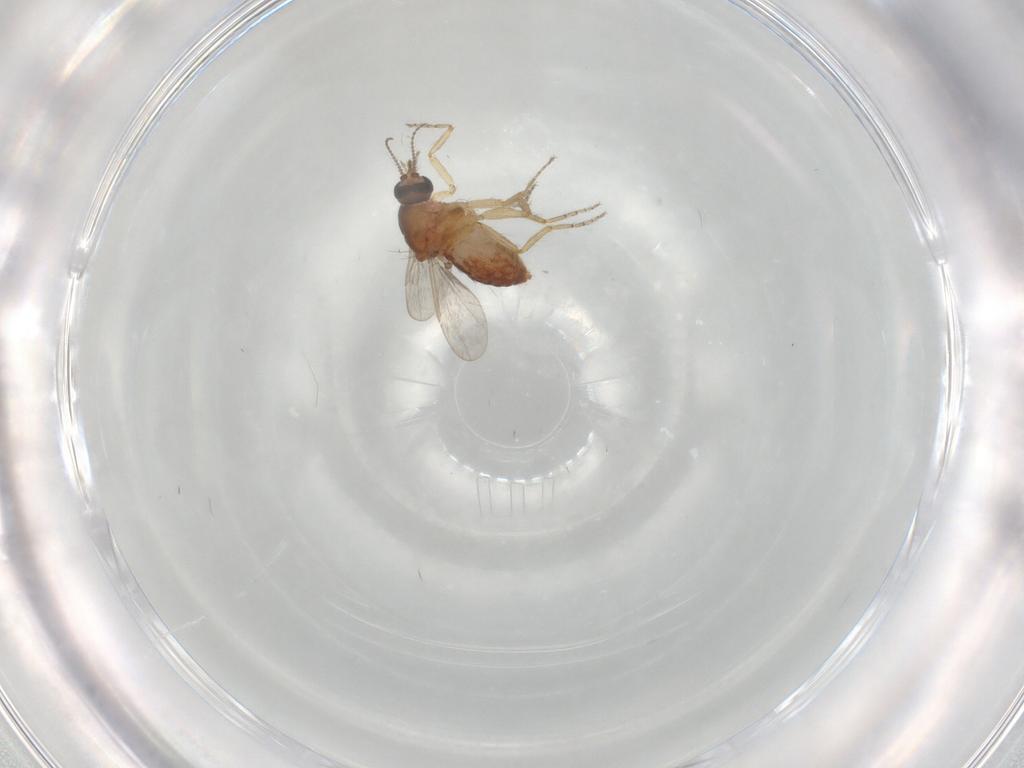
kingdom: Animalia
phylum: Arthropoda
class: Insecta
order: Diptera
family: Ceratopogonidae
